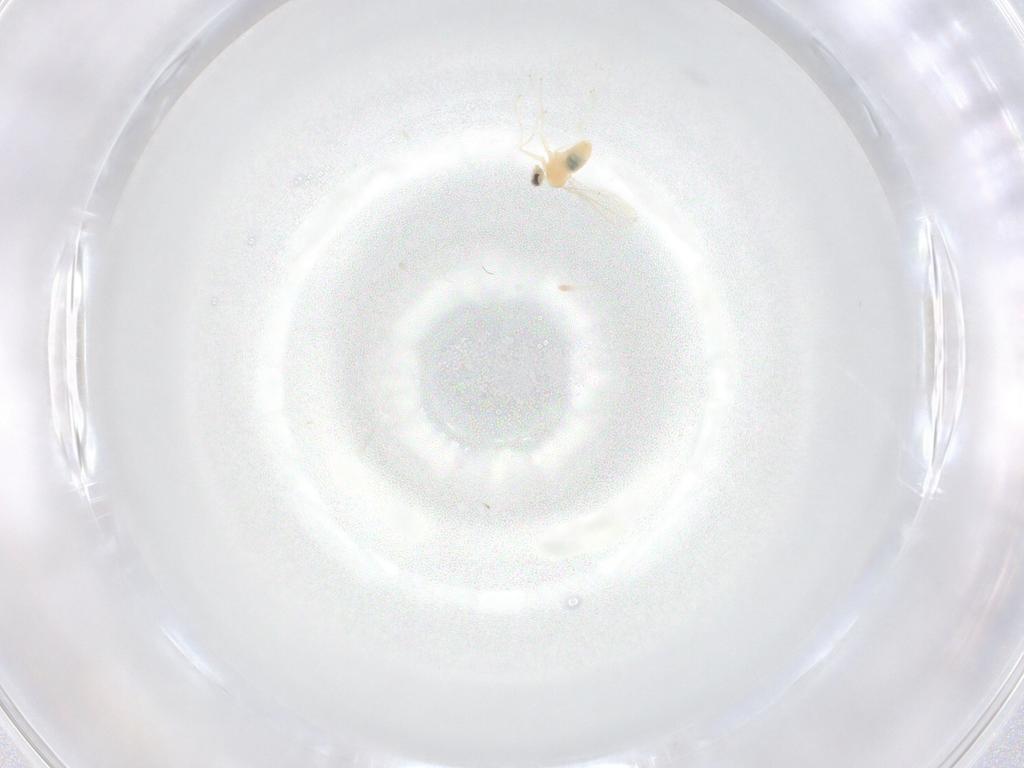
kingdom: Animalia
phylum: Arthropoda
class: Insecta
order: Diptera
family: Cecidomyiidae
